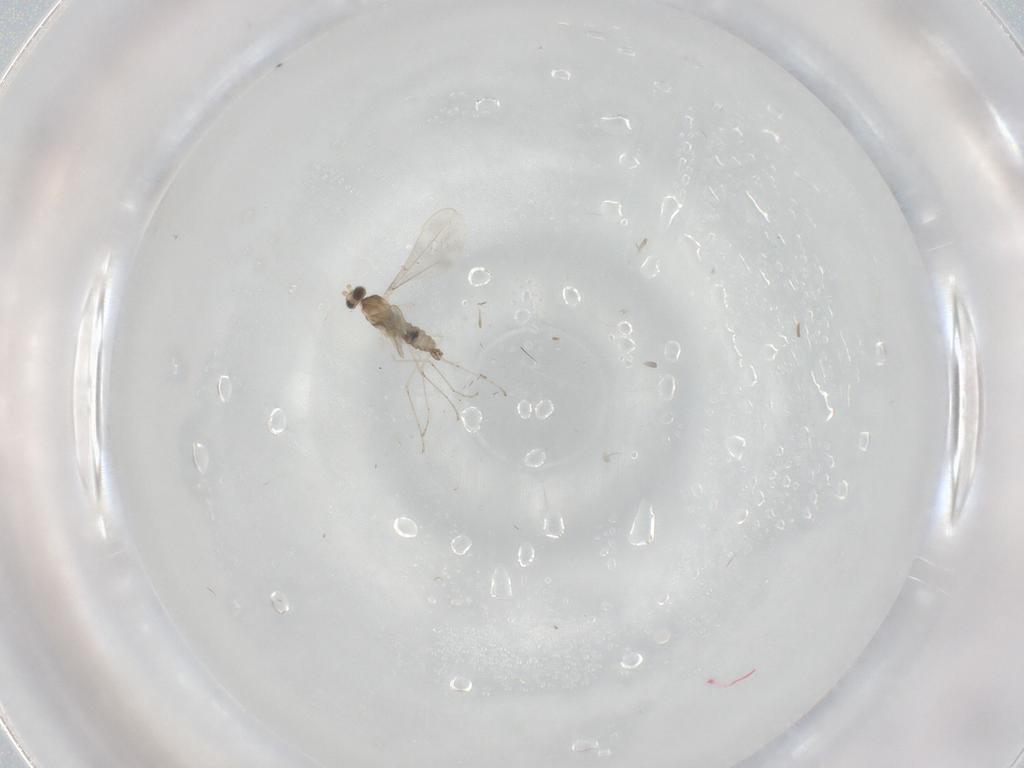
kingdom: Animalia
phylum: Arthropoda
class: Insecta
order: Diptera
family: Cecidomyiidae
